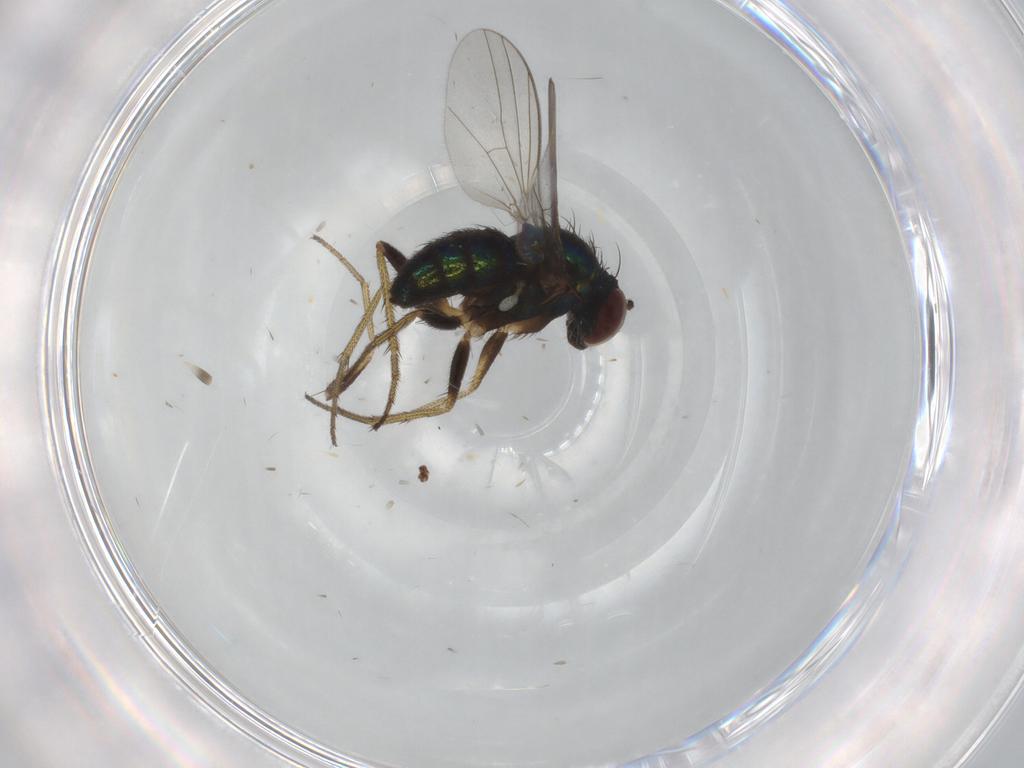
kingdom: Animalia
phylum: Arthropoda
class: Insecta
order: Diptera
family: Dolichopodidae
